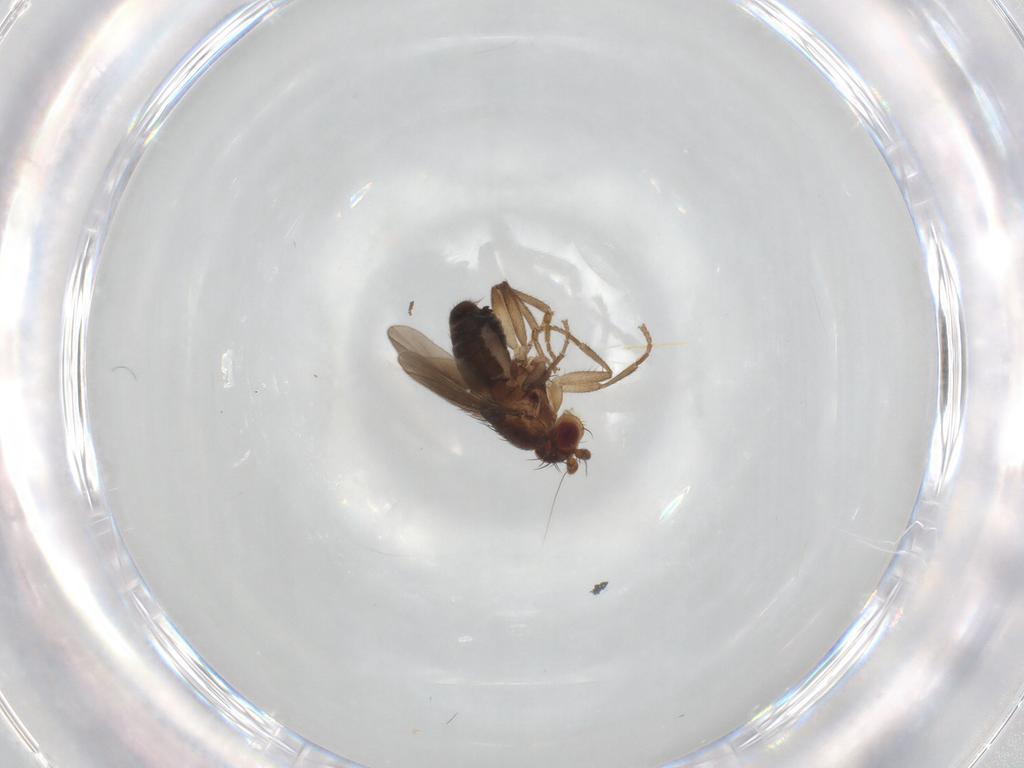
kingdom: Animalia
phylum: Arthropoda
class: Insecta
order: Diptera
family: Sphaeroceridae
